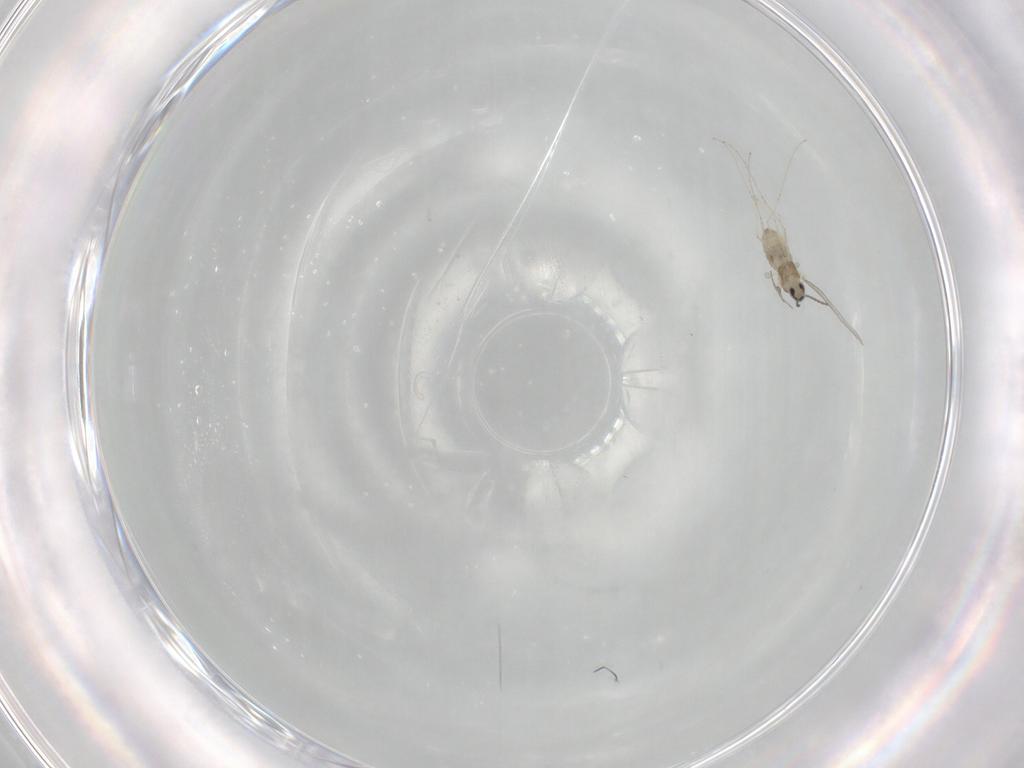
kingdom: Animalia
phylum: Arthropoda
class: Insecta
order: Diptera
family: Cecidomyiidae
